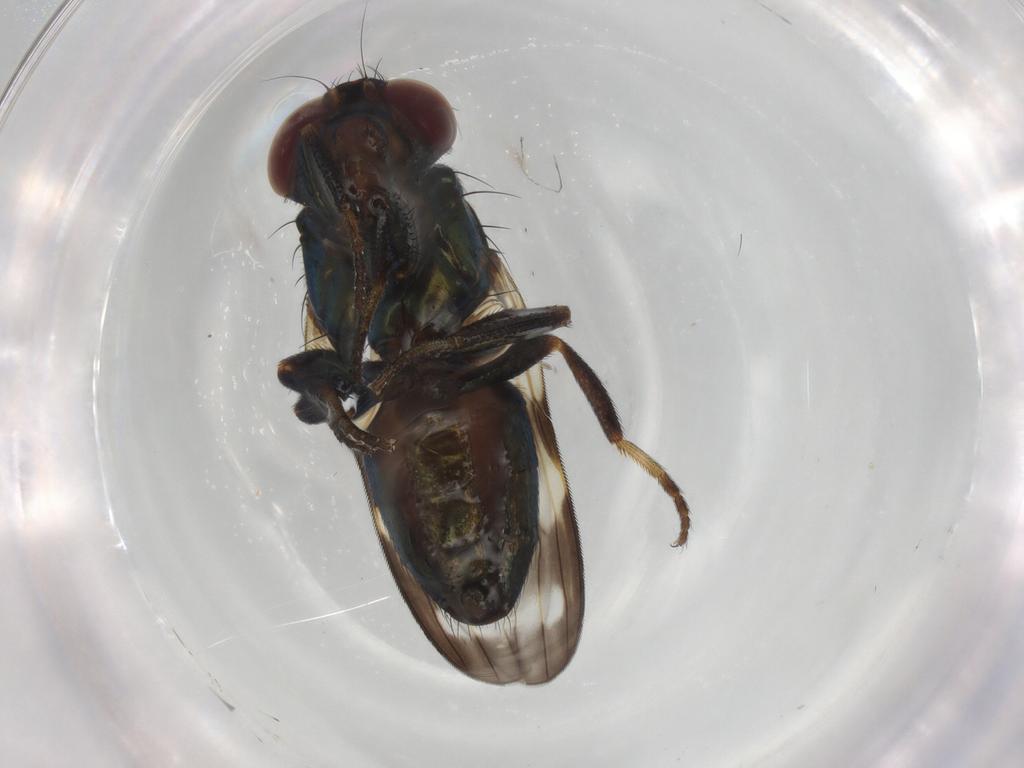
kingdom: Animalia
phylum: Arthropoda
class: Insecta
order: Diptera
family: Ulidiidae
